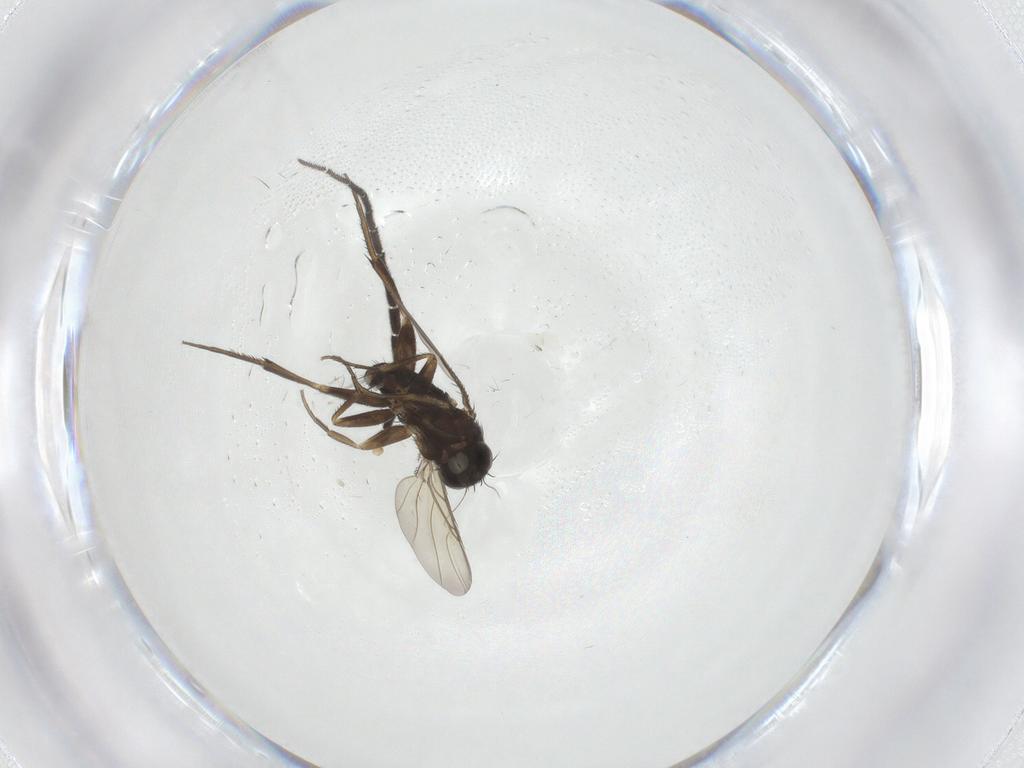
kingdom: Animalia
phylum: Arthropoda
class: Insecta
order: Diptera
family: Phoridae
